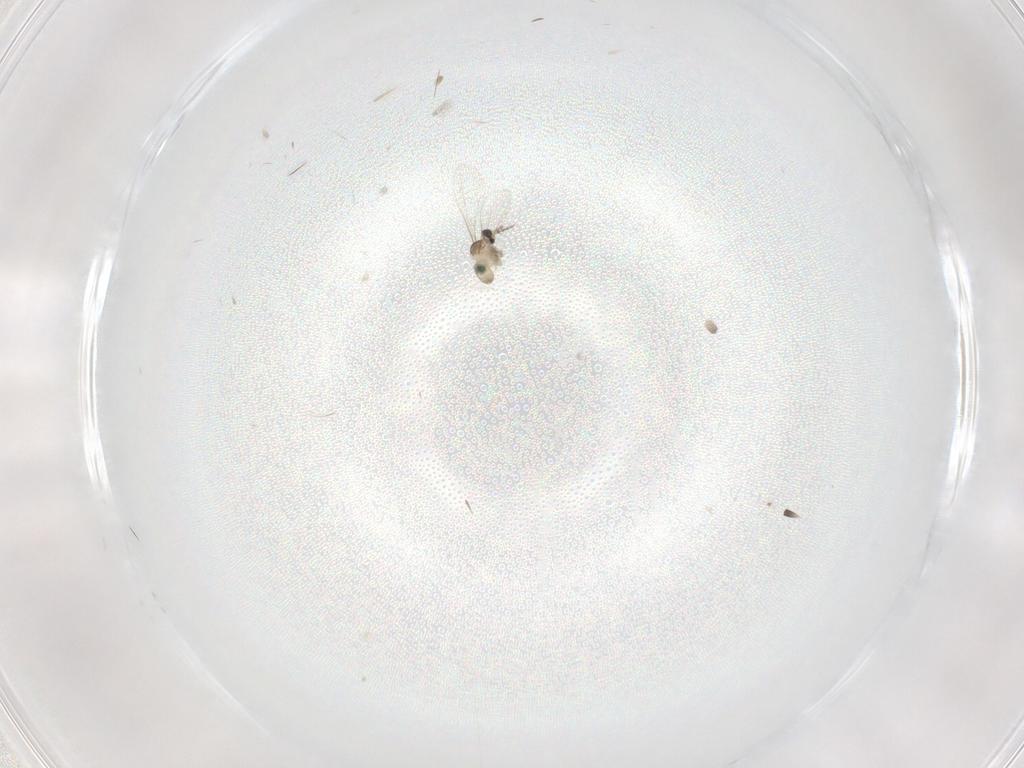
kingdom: Animalia
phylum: Arthropoda
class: Insecta
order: Diptera
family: Cecidomyiidae
